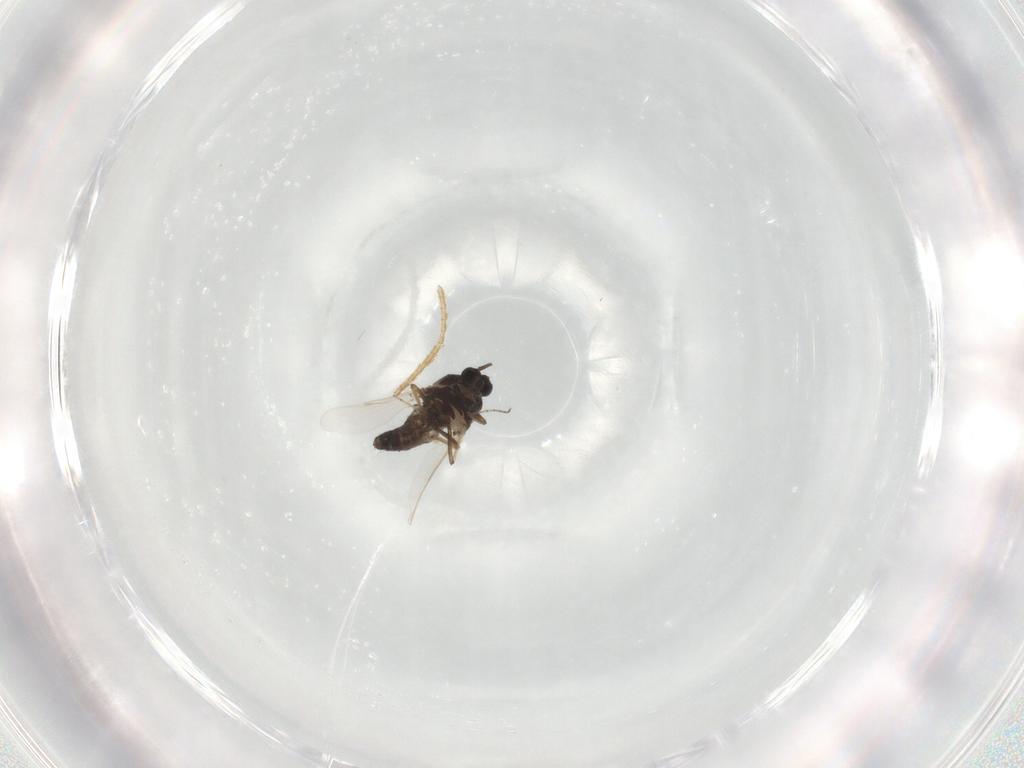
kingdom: Animalia
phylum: Arthropoda
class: Insecta
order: Diptera
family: Ceratopogonidae
